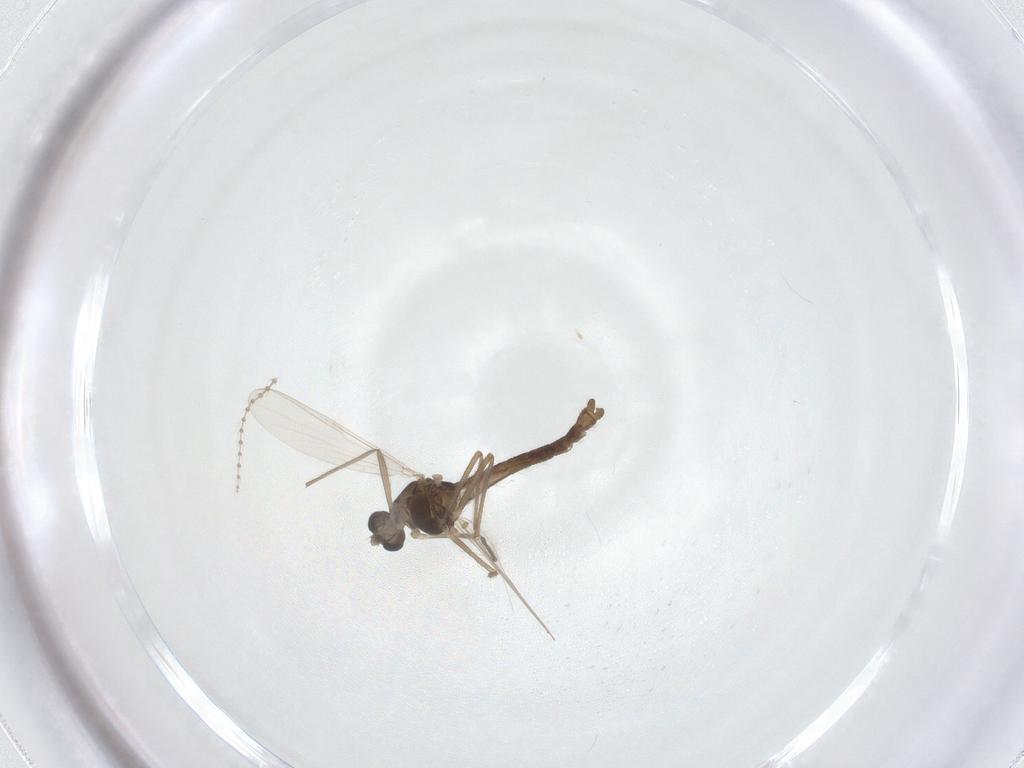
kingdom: Animalia
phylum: Arthropoda
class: Insecta
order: Diptera
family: Chironomidae
